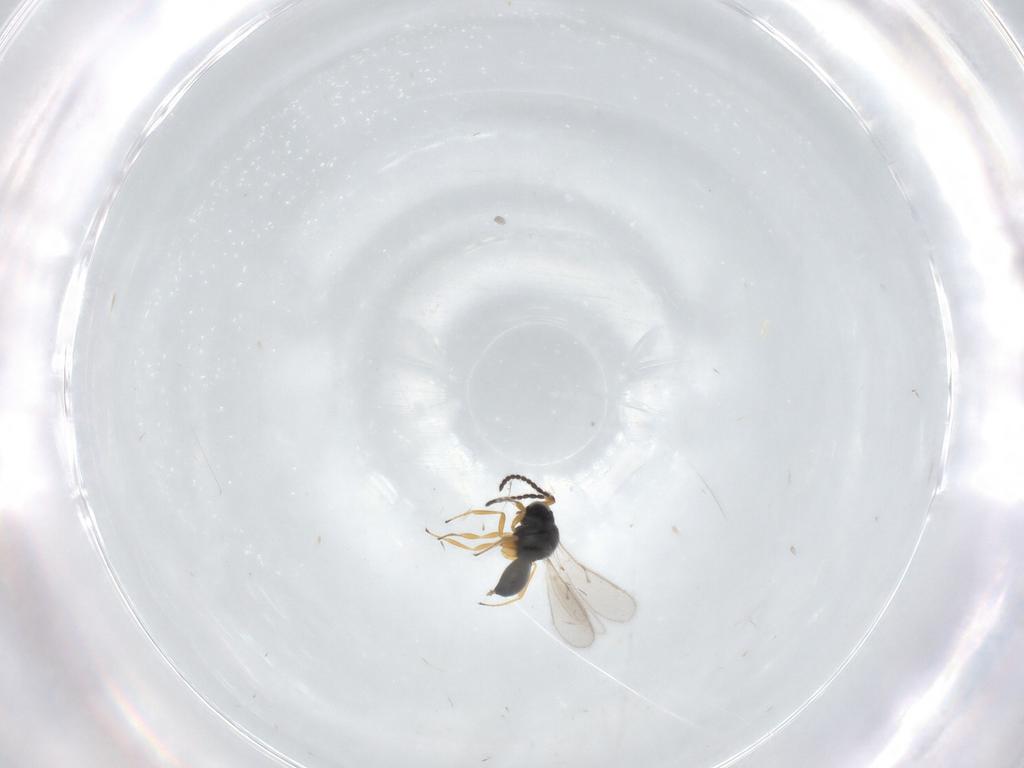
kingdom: Animalia
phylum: Arthropoda
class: Insecta
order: Hymenoptera
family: Scelionidae
